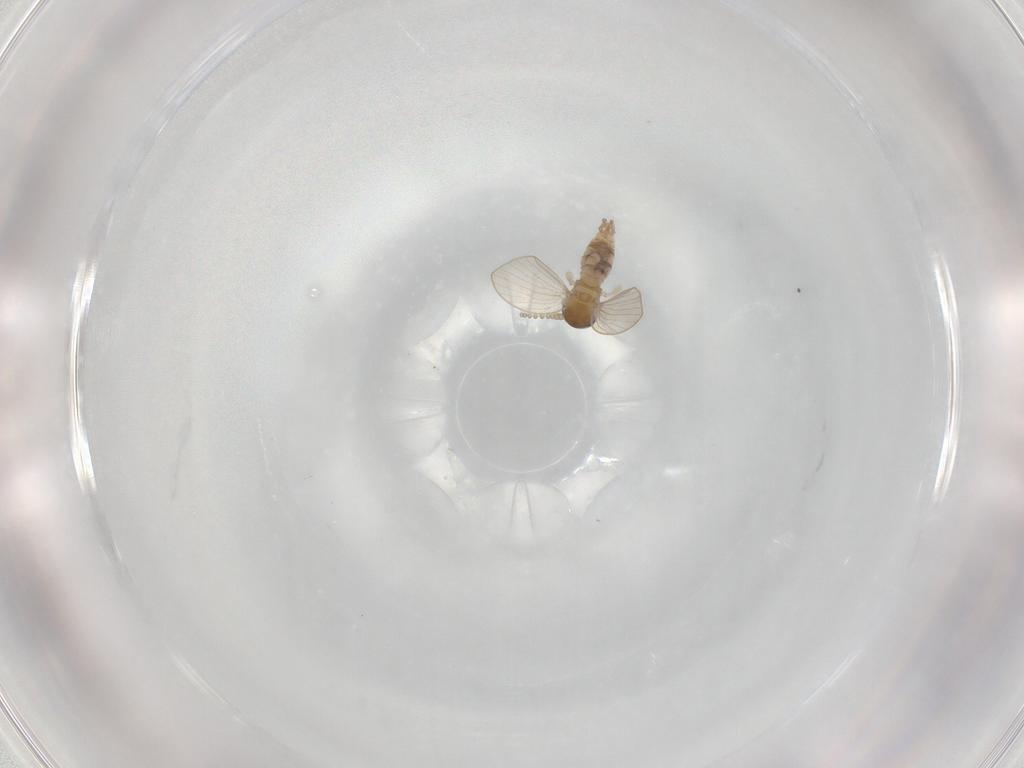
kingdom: Animalia
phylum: Arthropoda
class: Insecta
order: Diptera
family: Psychodidae
